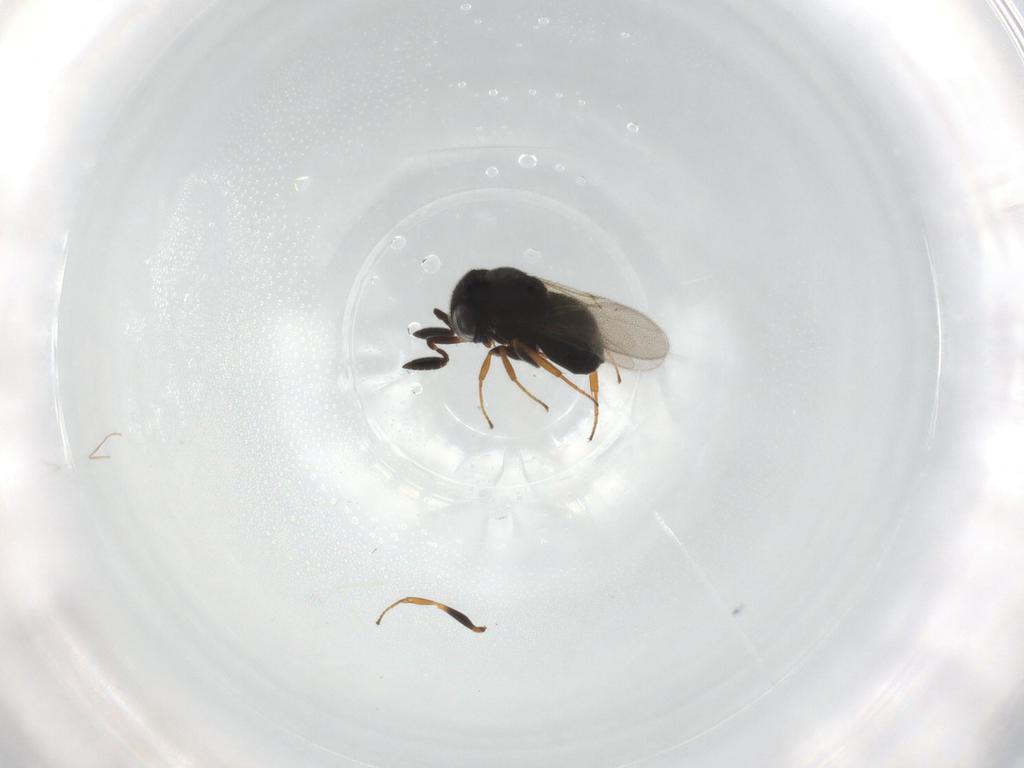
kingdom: Animalia
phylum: Arthropoda
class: Insecta
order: Hymenoptera
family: Scelionidae
